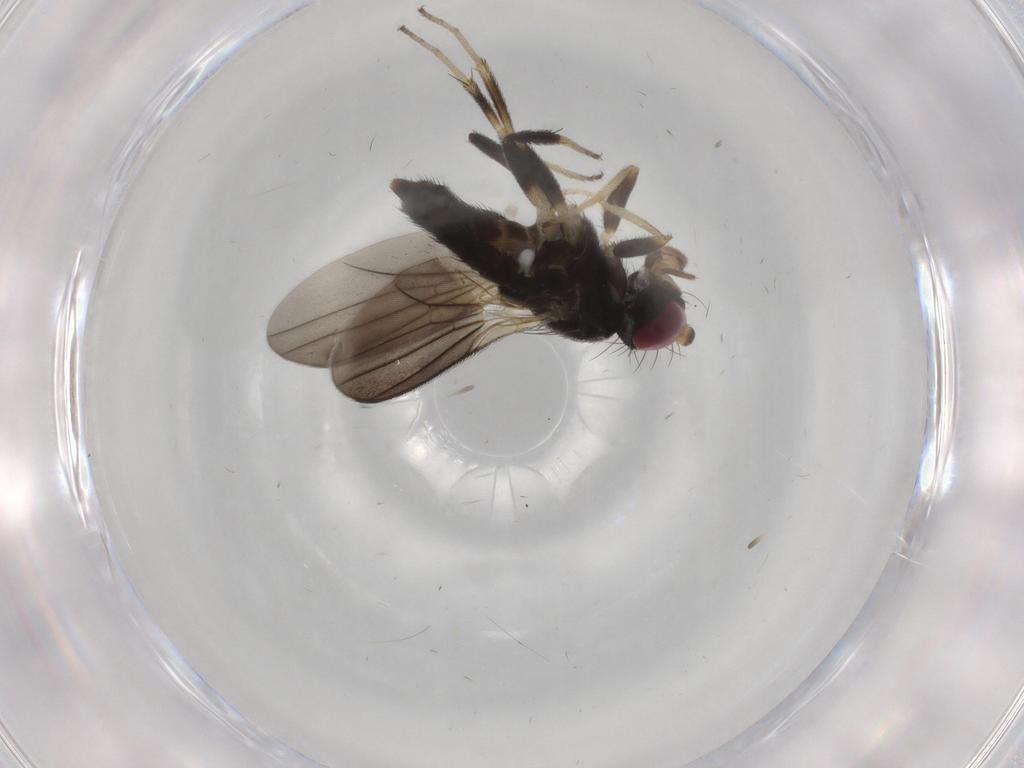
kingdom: Animalia
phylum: Arthropoda
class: Insecta
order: Diptera
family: Clusiidae
